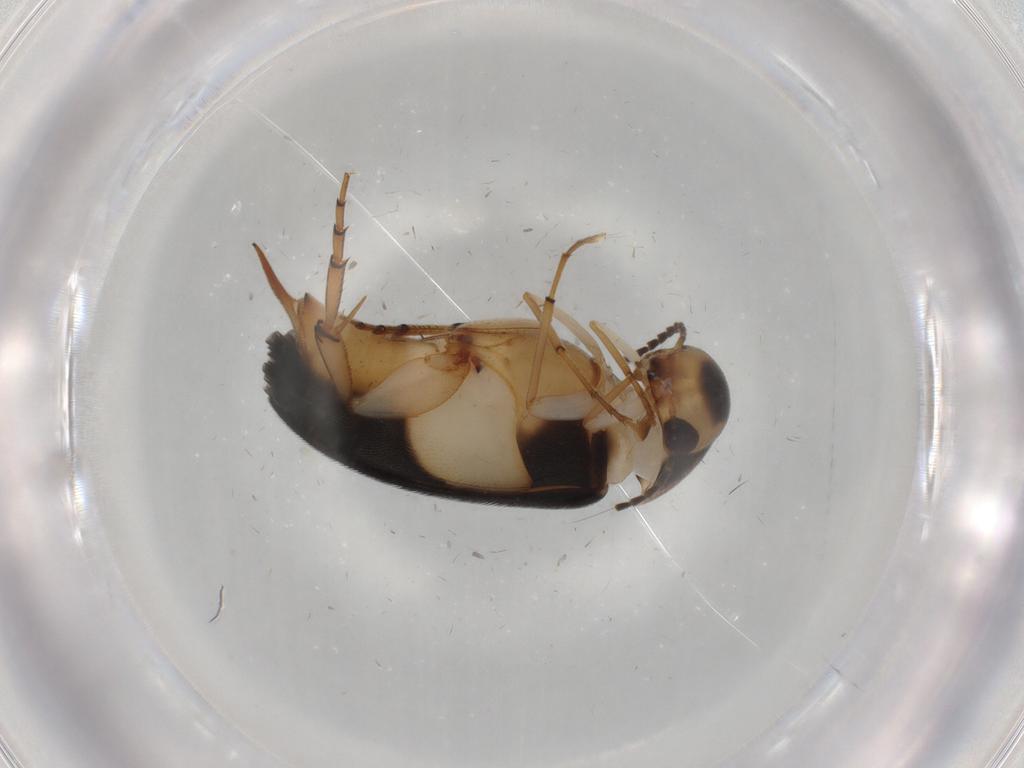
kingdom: Animalia
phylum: Arthropoda
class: Insecta
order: Coleoptera
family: Mordellidae
